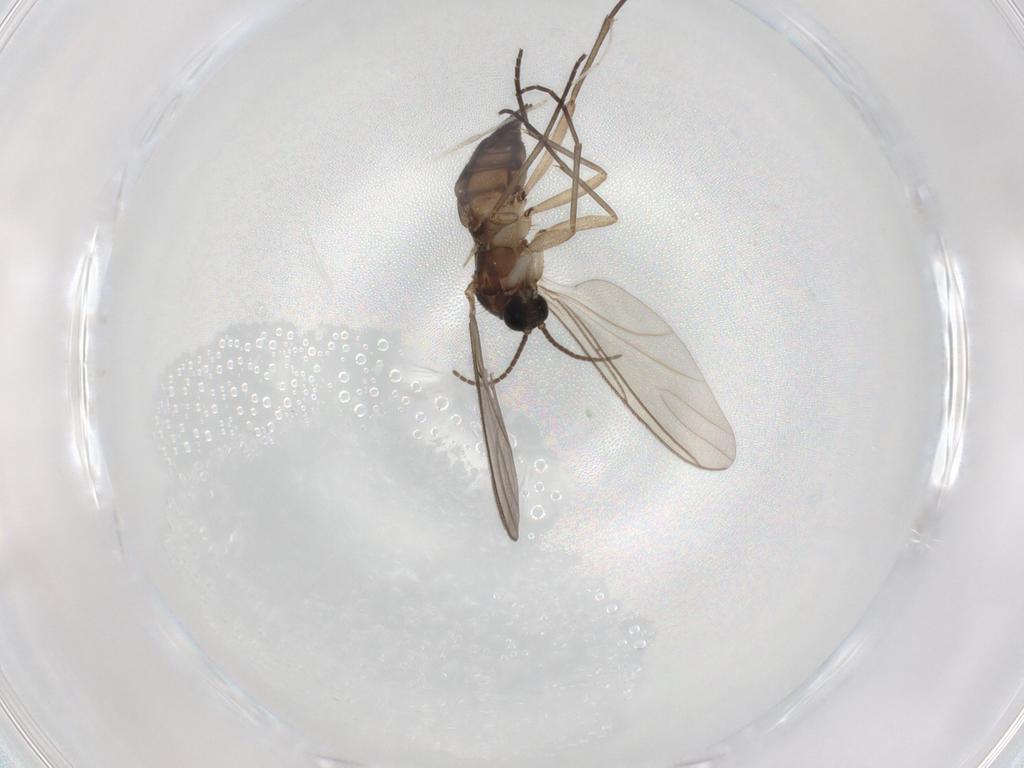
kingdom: Animalia
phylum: Arthropoda
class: Insecta
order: Diptera
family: Sciaridae
